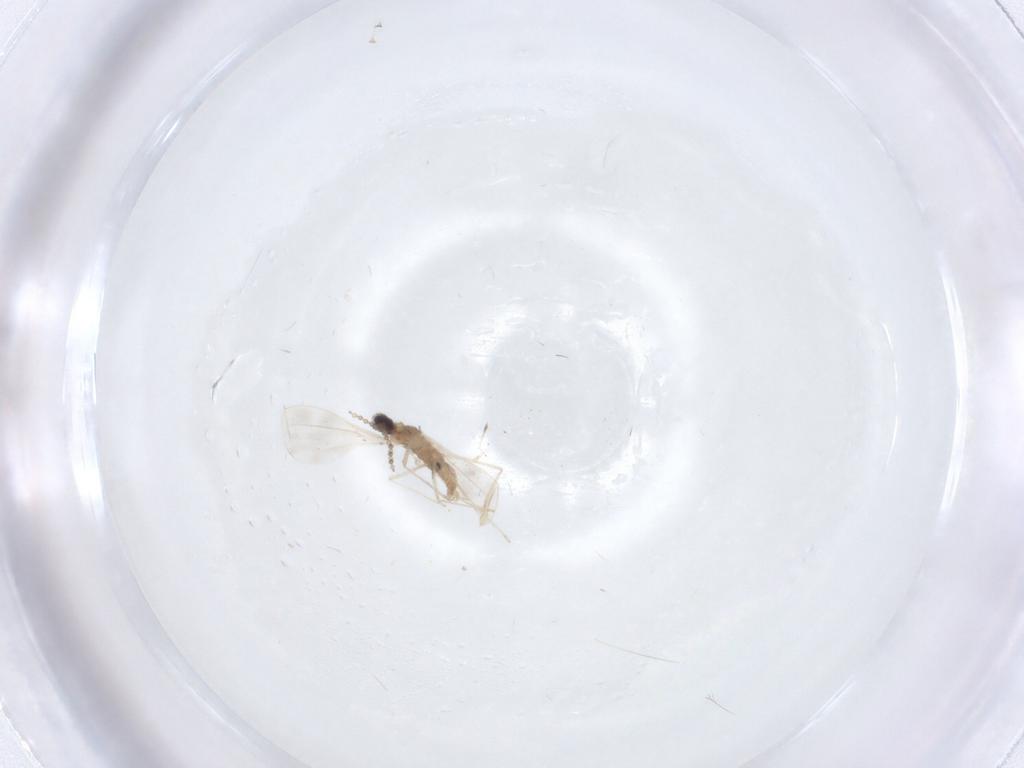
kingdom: Animalia
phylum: Arthropoda
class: Insecta
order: Diptera
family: Cecidomyiidae
